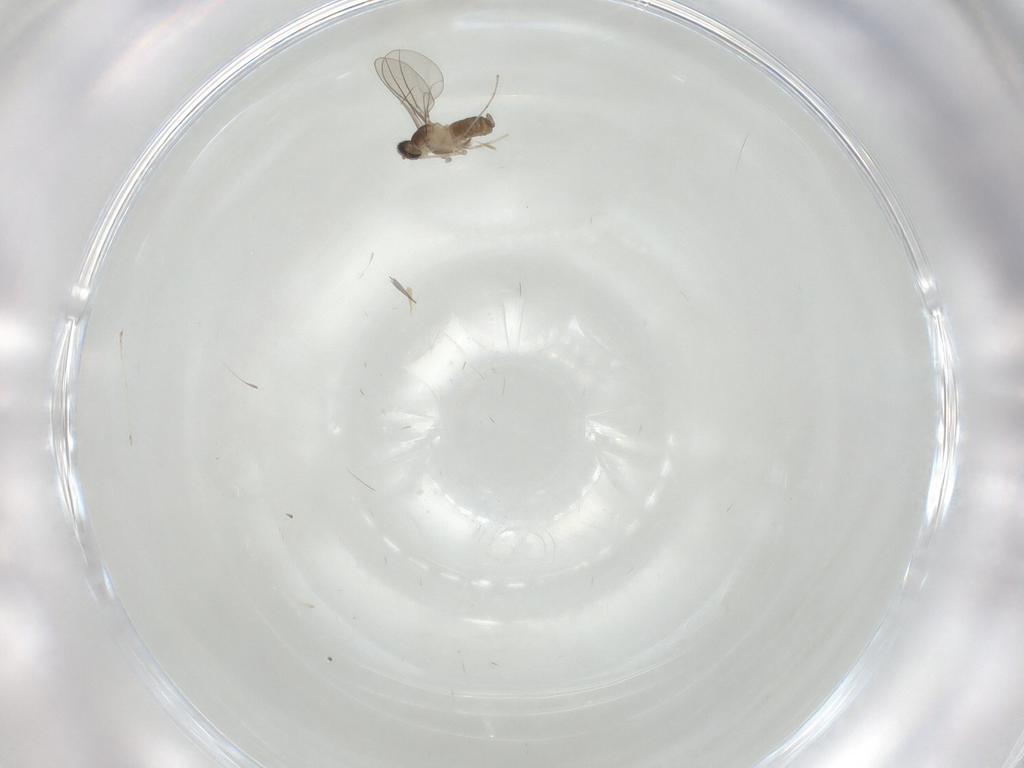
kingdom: Animalia
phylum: Arthropoda
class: Insecta
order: Diptera
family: Cecidomyiidae
